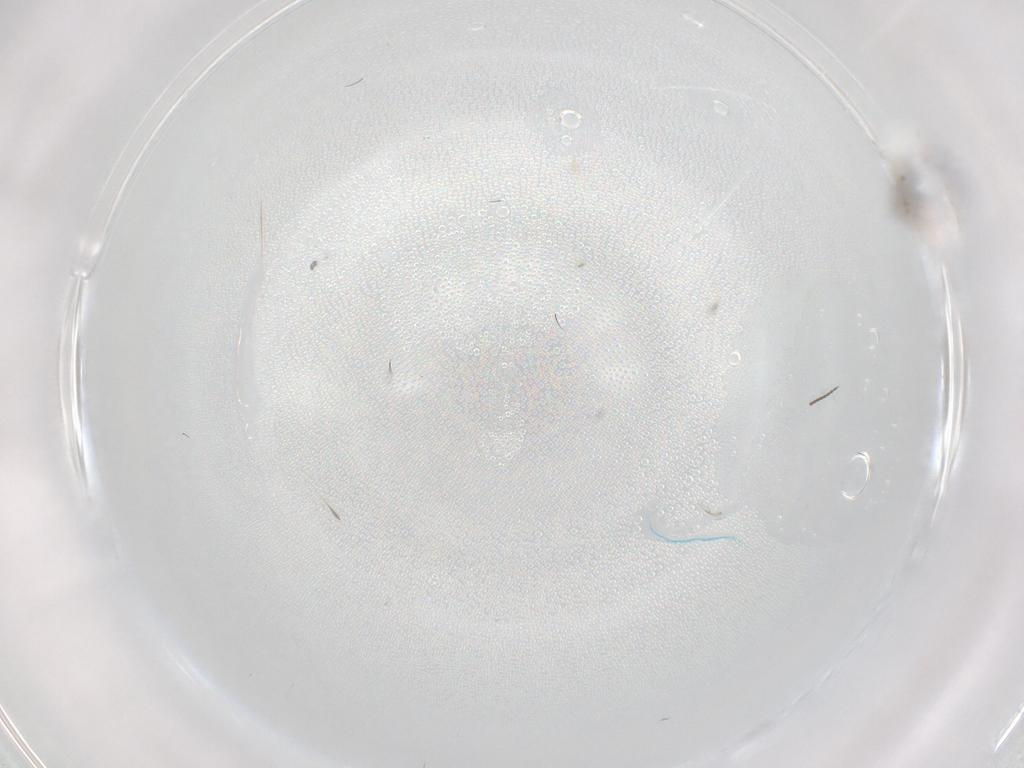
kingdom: Animalia
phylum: Arthropoda
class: Insecta
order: Diptera
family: Cecidomyiidae
